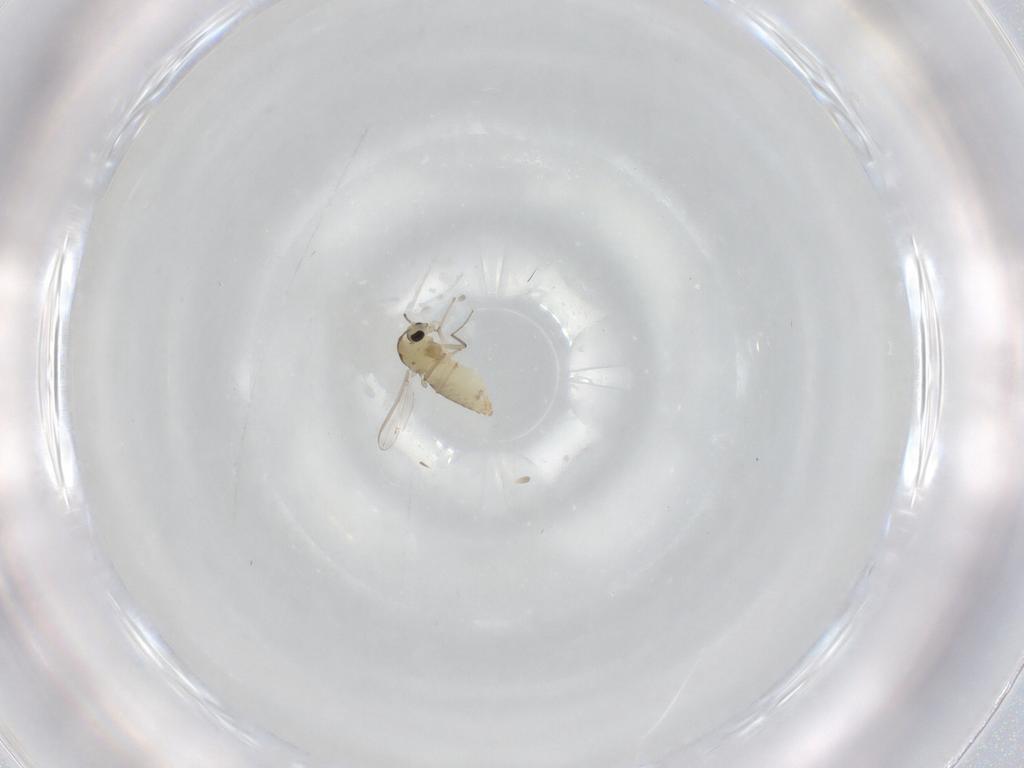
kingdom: Animalia
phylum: Arthropoda
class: Insecta
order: Diptera
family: Chironomidae
